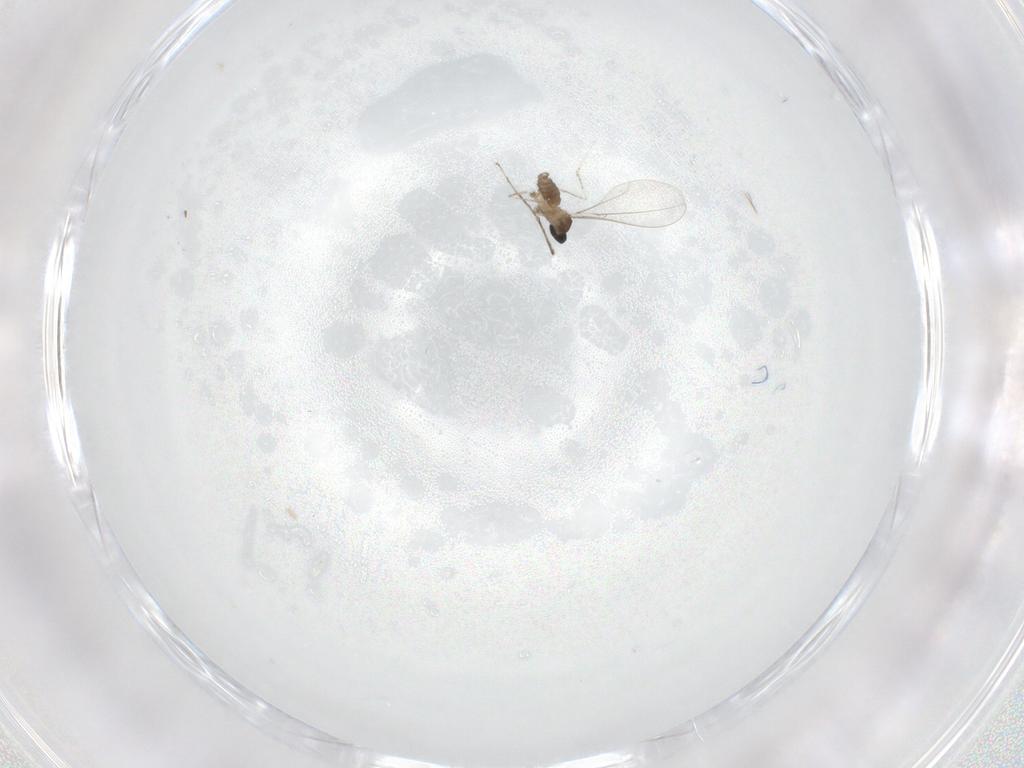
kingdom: Animalia
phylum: Arthropoda
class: Insecta
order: Diptera
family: Cecidomyiidae
